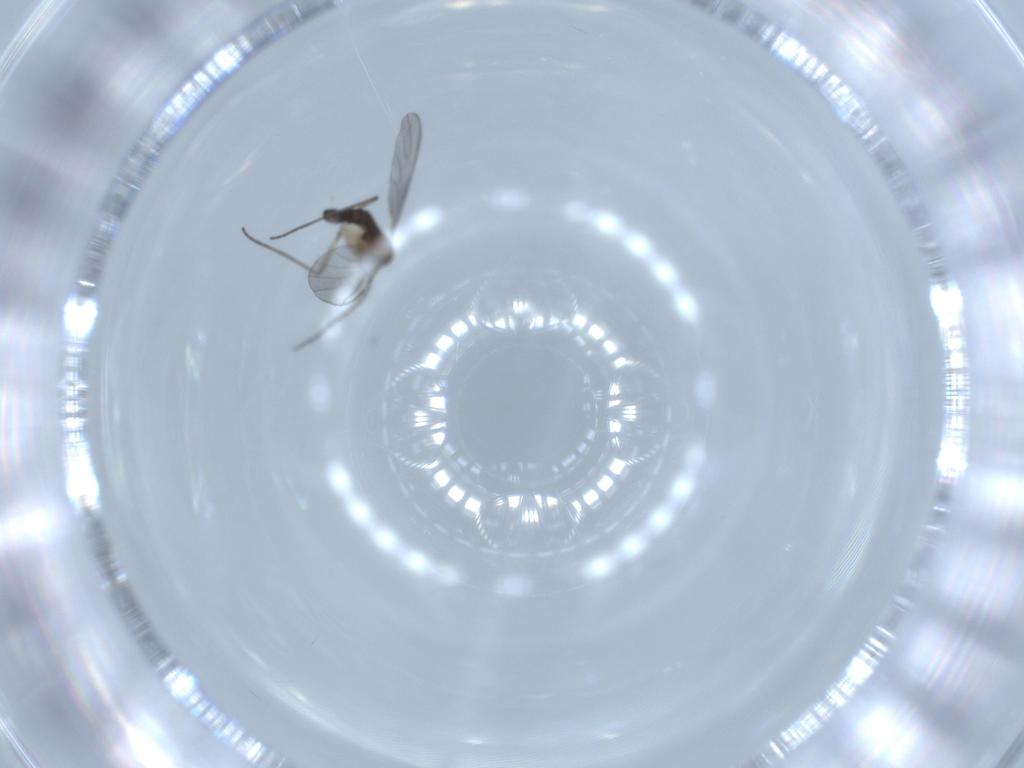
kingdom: Animalia
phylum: Arthropoda
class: Insecta
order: Diptera
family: Sciaridae
